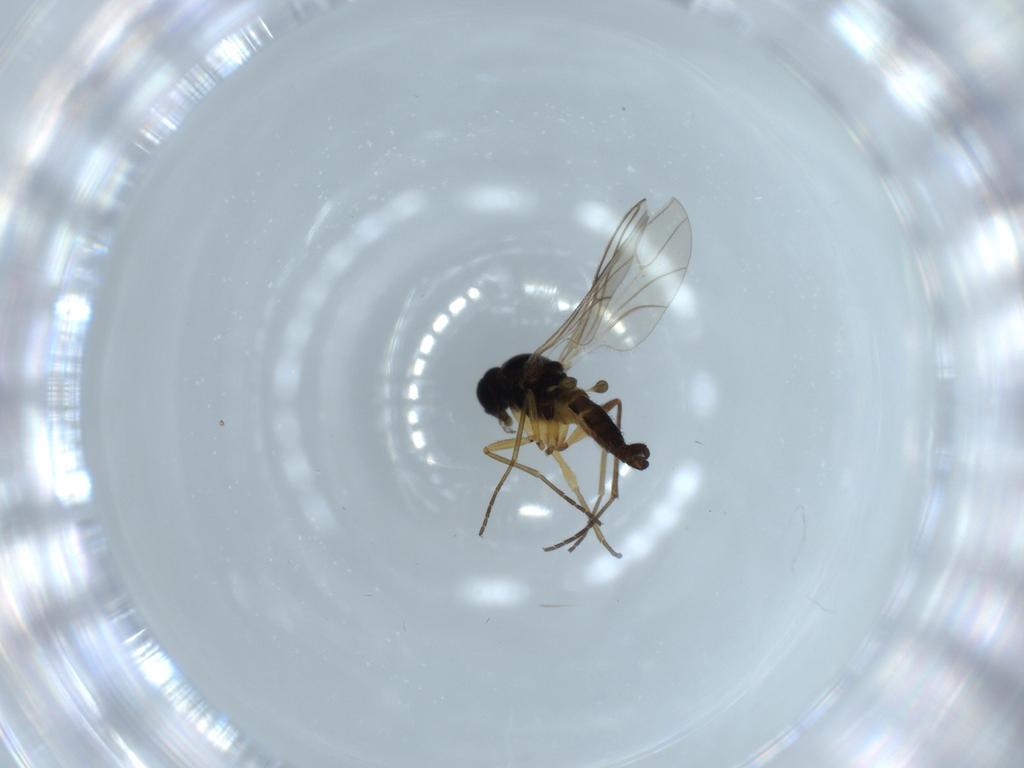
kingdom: Animalia
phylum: Arthropoda
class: Insecta
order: Diptera
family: Sciaridae
